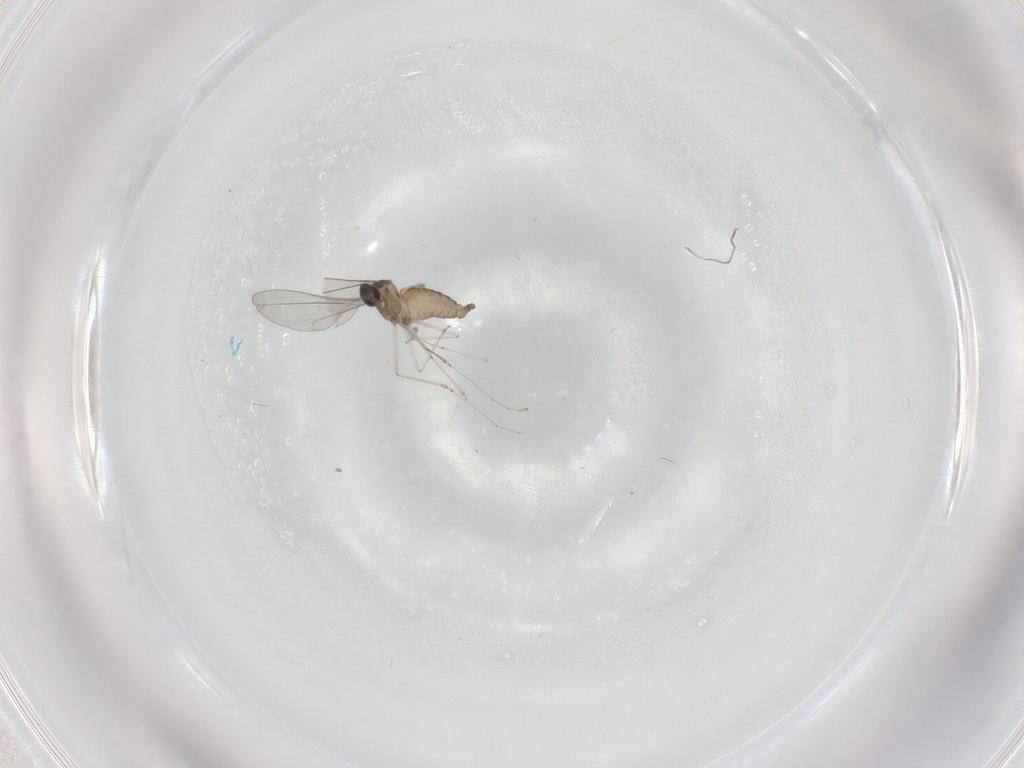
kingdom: Animalia
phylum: Arthropoda
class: Insecta
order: Diptera
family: Cecidomyiidae
